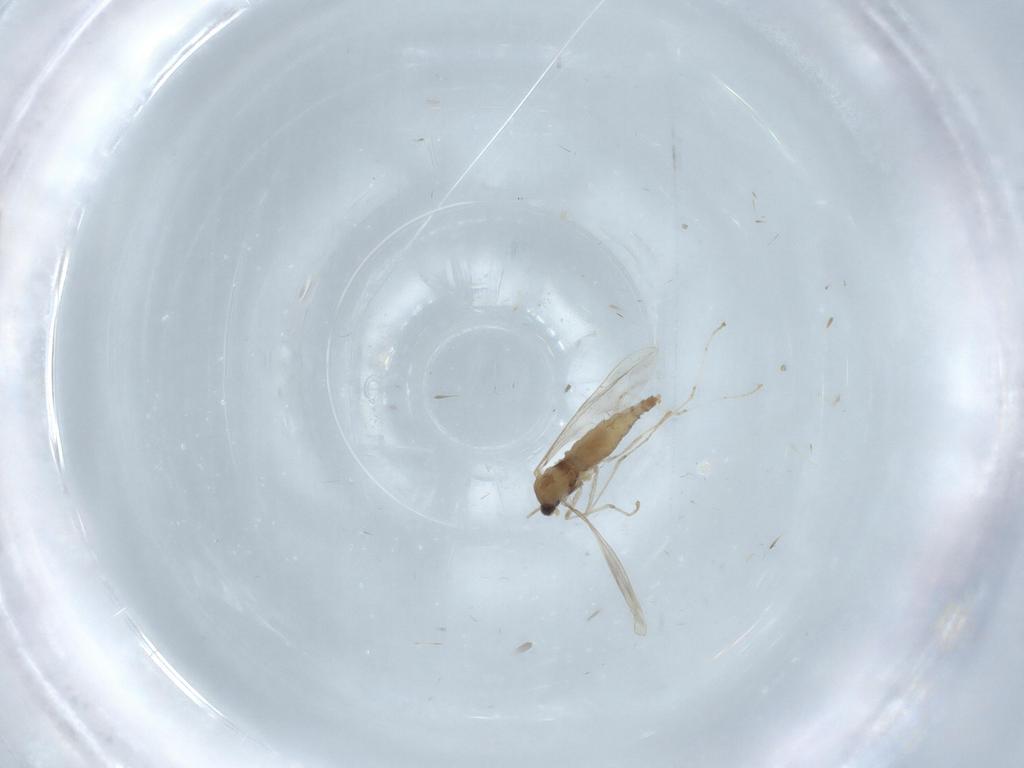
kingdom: Animalia
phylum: Arthropoda
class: Insecta
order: Diptera
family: Cecidomyiidae
